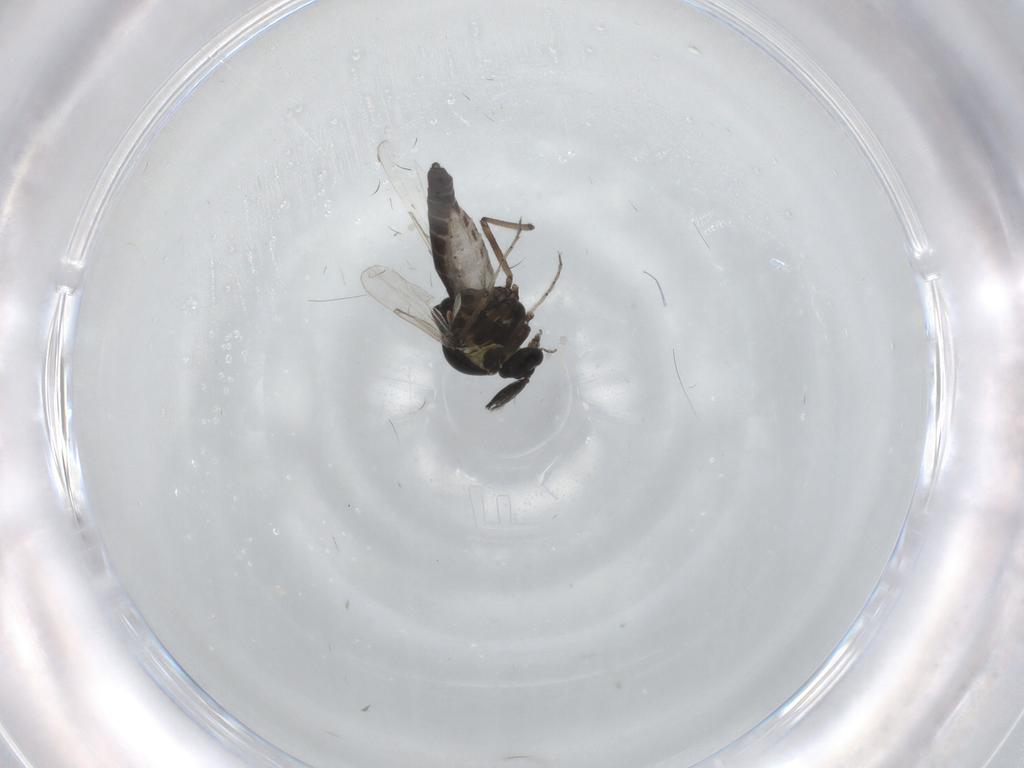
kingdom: Animalia
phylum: Arthropoda
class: Insecta
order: Diptera
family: Ceratopogonidae
